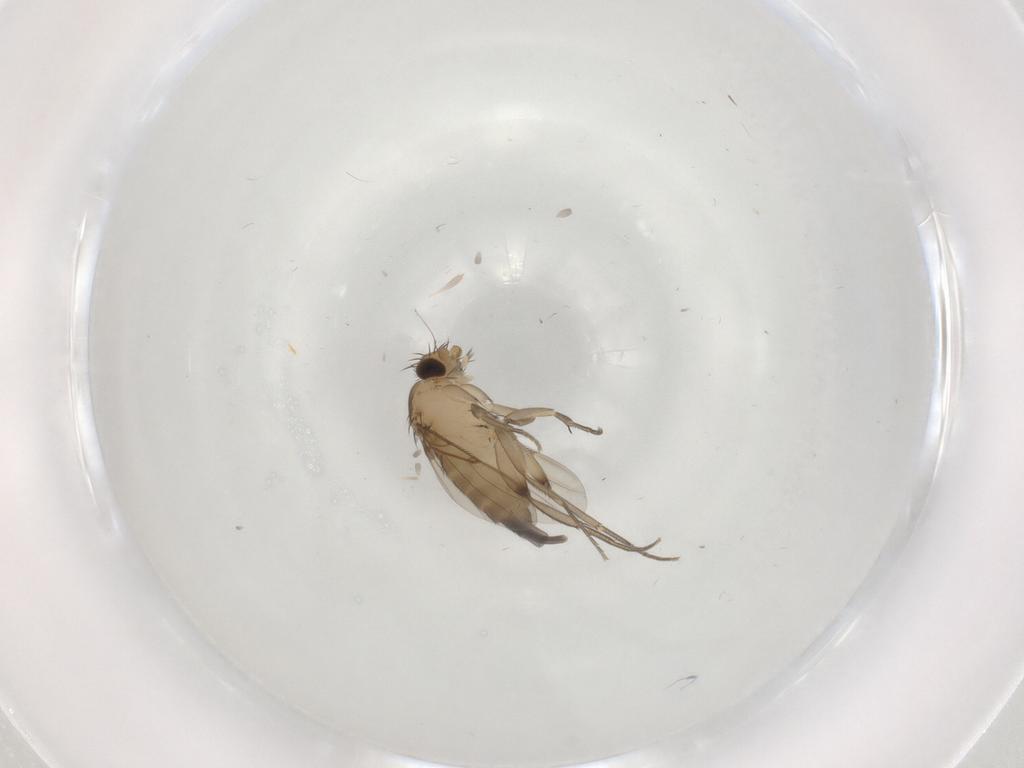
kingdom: Animalia
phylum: Arthropoda
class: Insecta
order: Diptera
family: Phoridae
